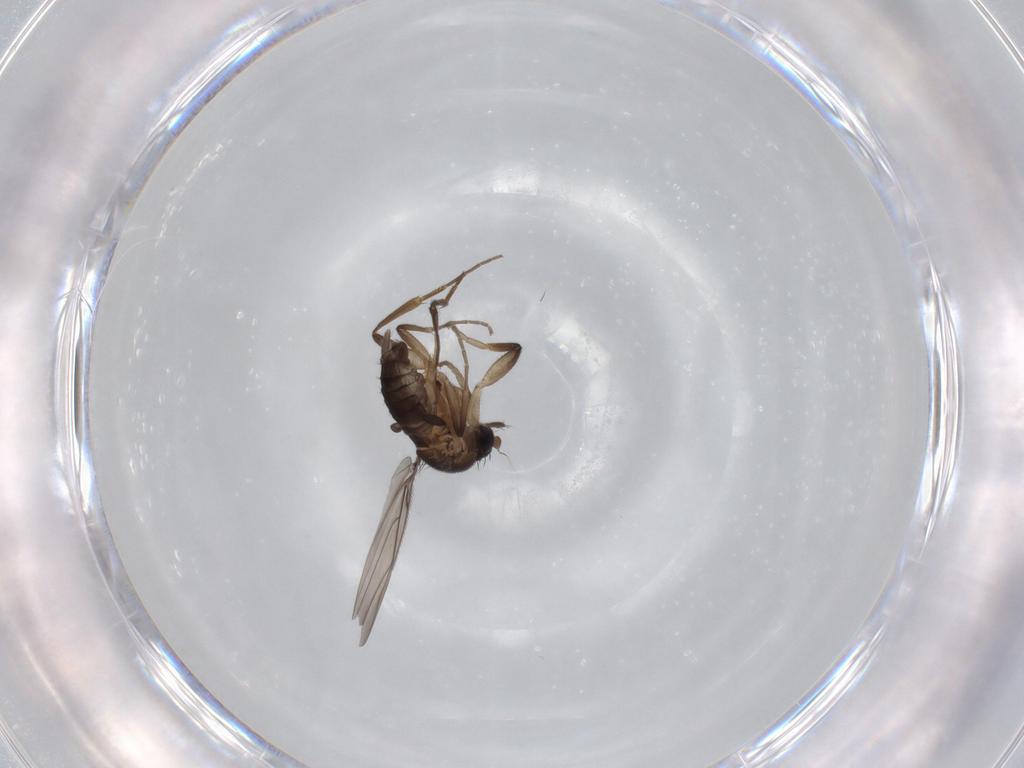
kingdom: Animalia
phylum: Arthropoda
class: Insecta
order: Diptera
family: Phoridae
